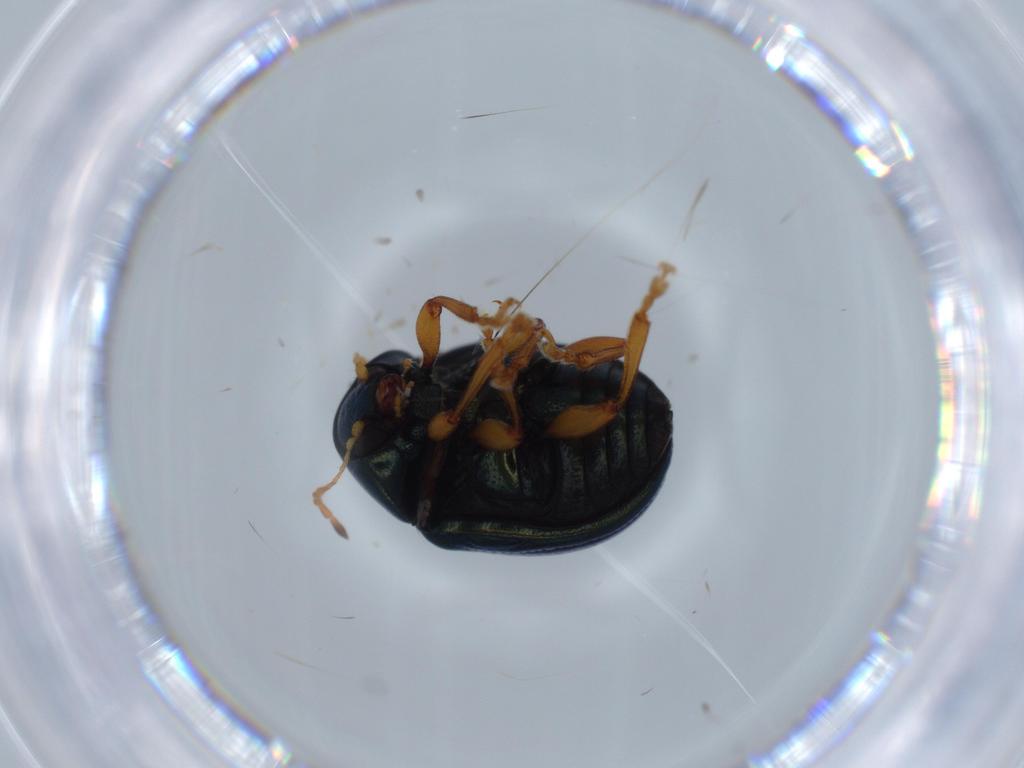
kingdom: Animalia
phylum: Arthropoda
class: Insecta
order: Coleoptera
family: Chrysomelidae
